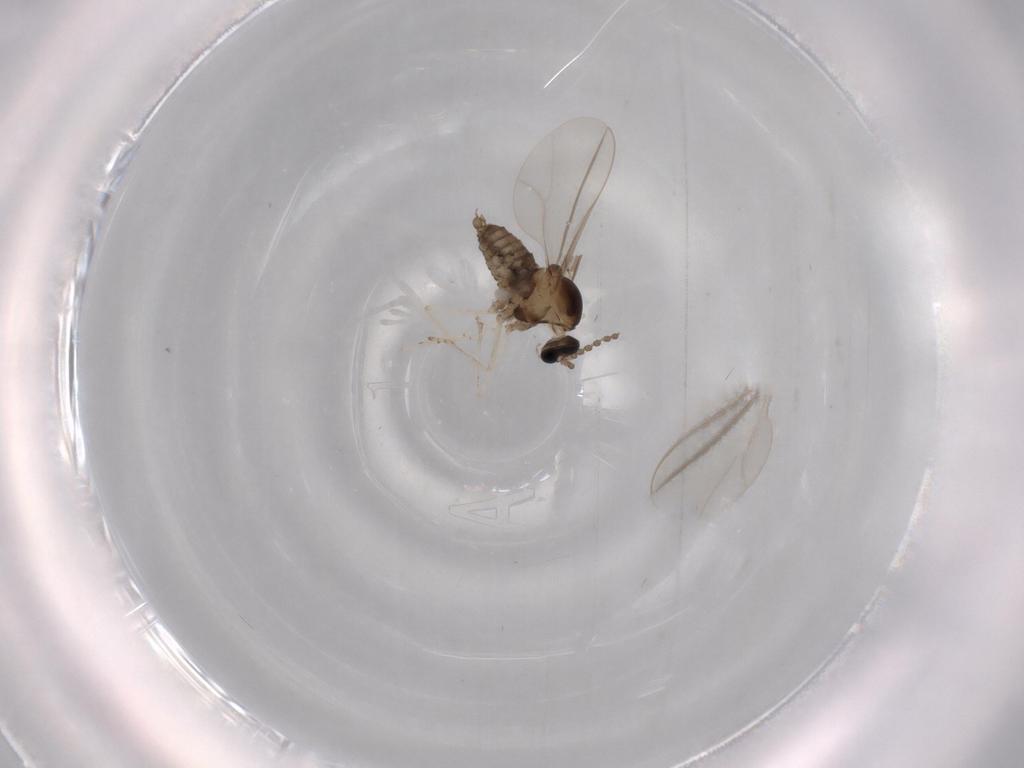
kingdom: Animalia
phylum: Arthropoda
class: Insecta
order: Diptera
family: Cecidomyiidae
